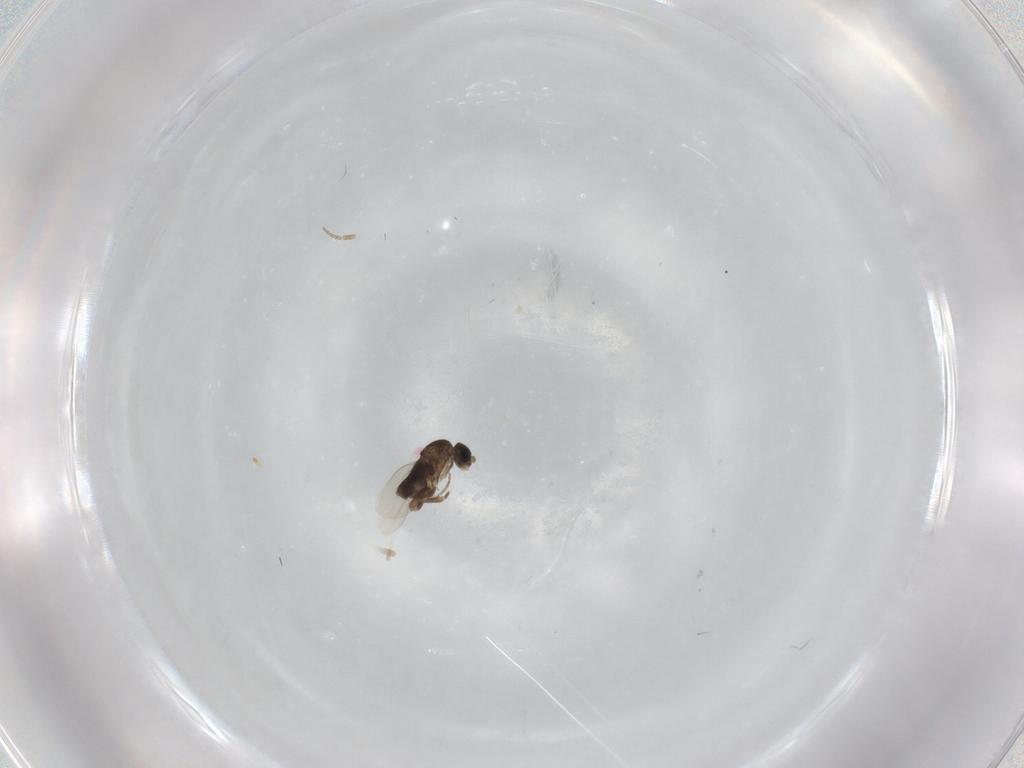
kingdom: Animalia
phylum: Arthropoda
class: Insecta
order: Diptera
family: Phoridae
